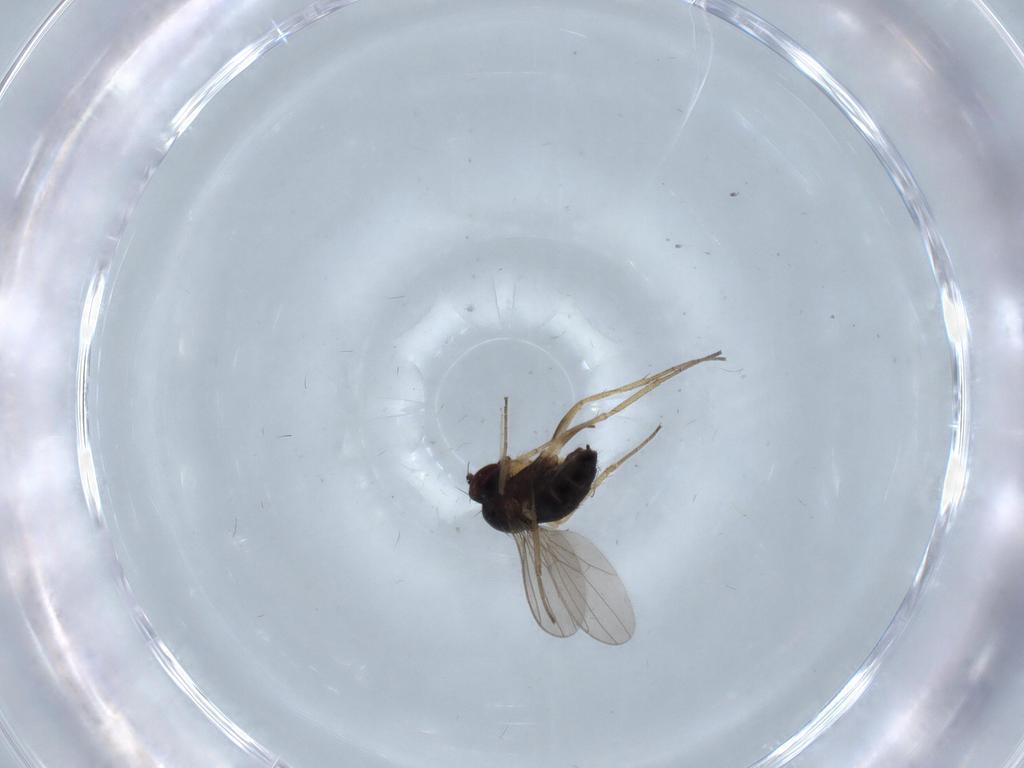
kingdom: Animalia
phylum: Arthropoda
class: Insecta
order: Diptera
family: Dolichopodidae
